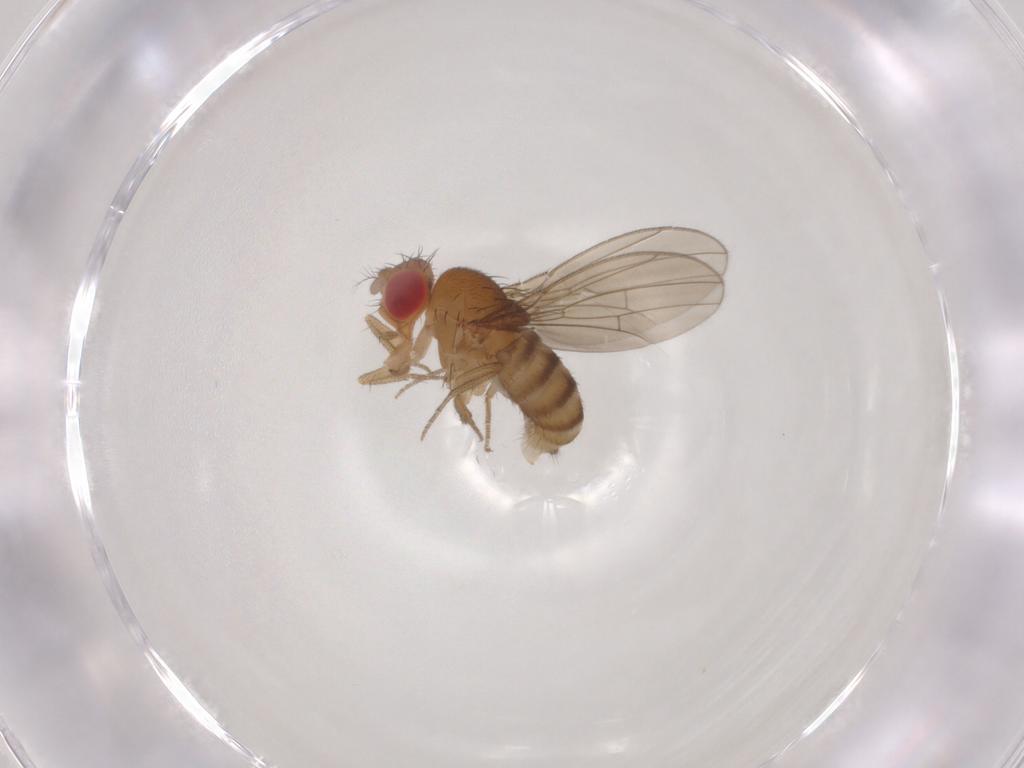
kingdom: Animalia
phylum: Arthropoda
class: Insecta
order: Diptera
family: Drosophilidae
